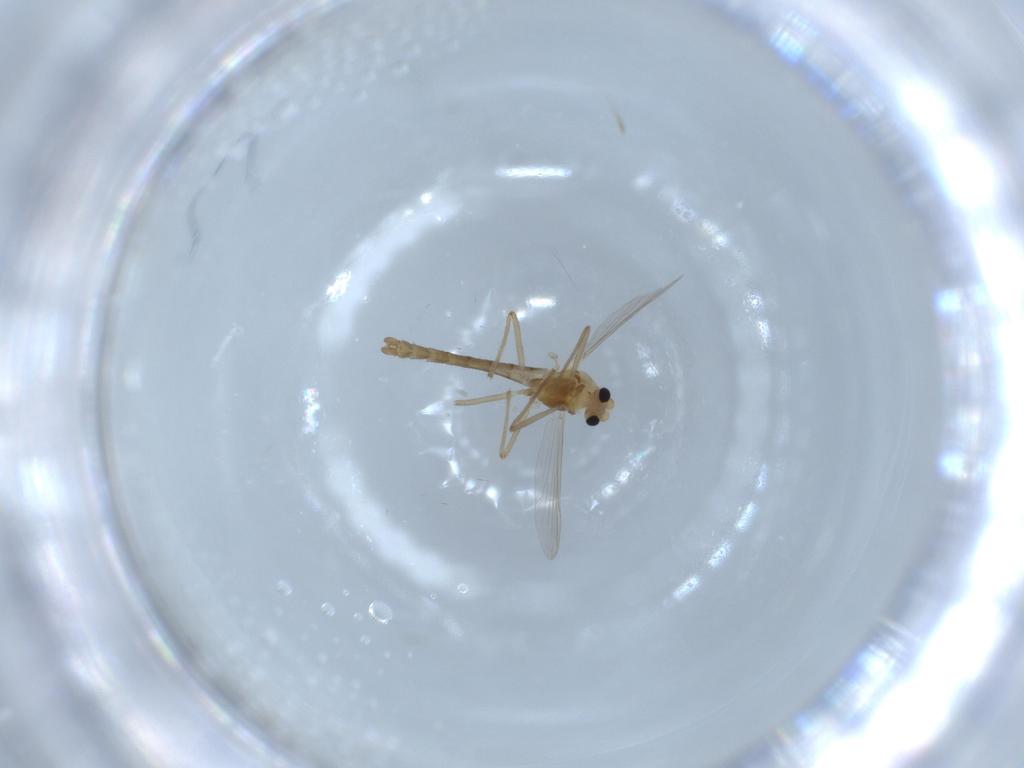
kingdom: Animalia
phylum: Arthropoda
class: Insecta
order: Diptera
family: Chironomidae
